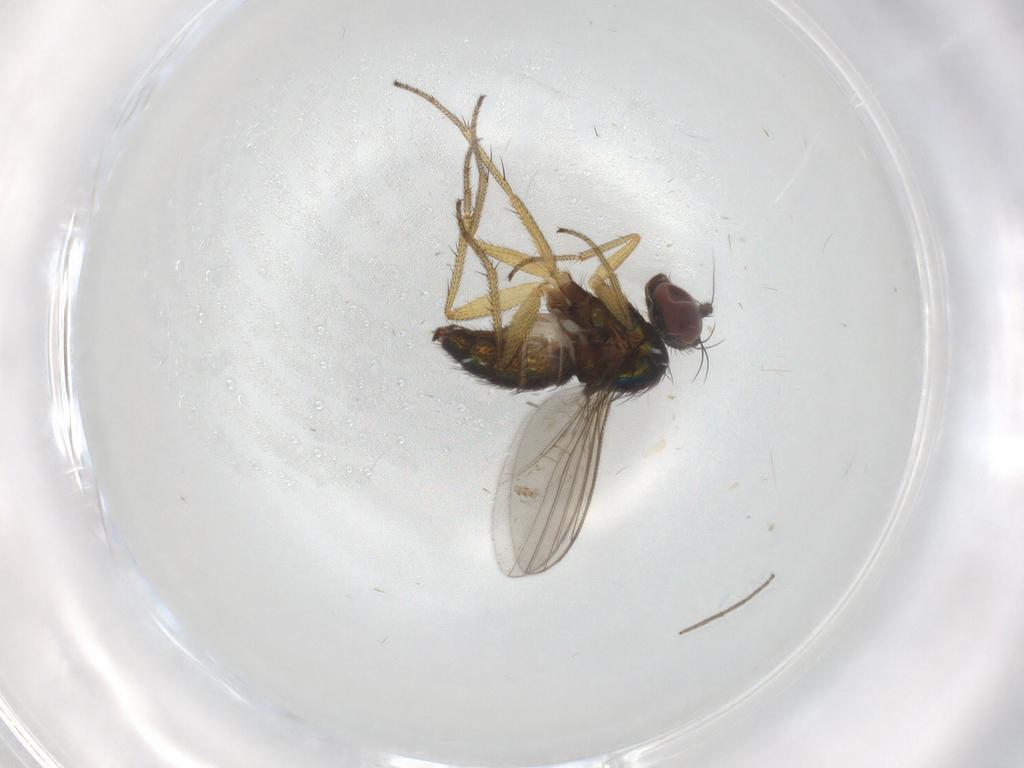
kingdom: Animalia
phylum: Arthropoda
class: Insecta
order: Diptera
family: Chironomidae
